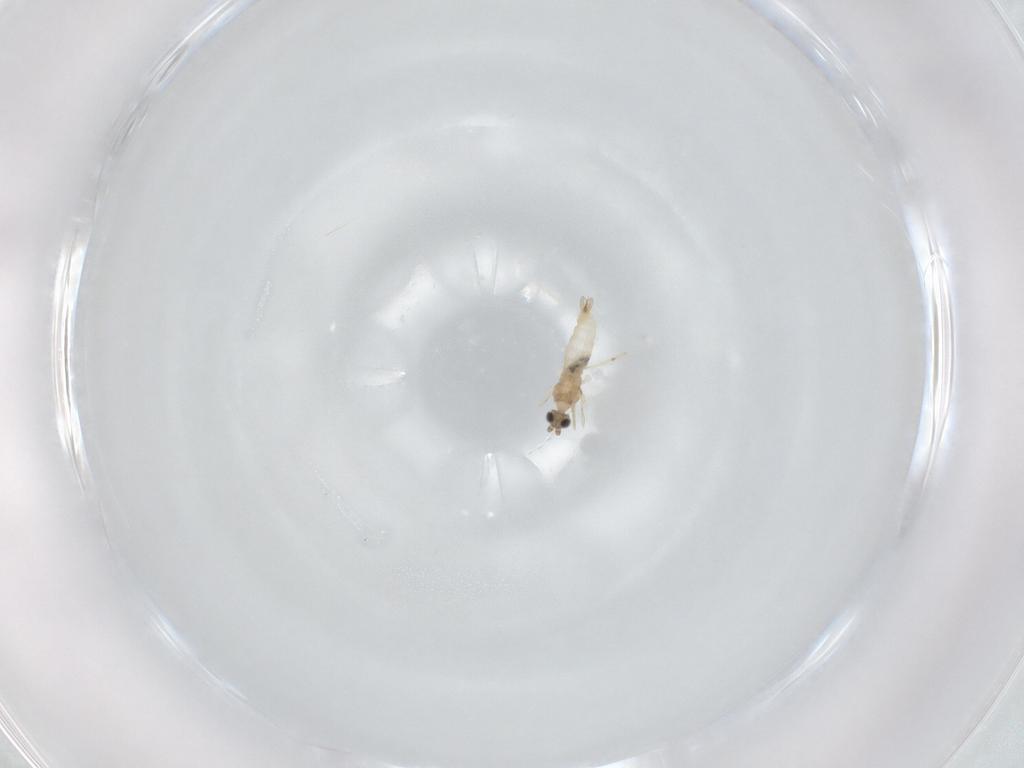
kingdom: Animalia
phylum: Arthropoda
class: Insecta
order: Diptera
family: Cecidomyiidae
